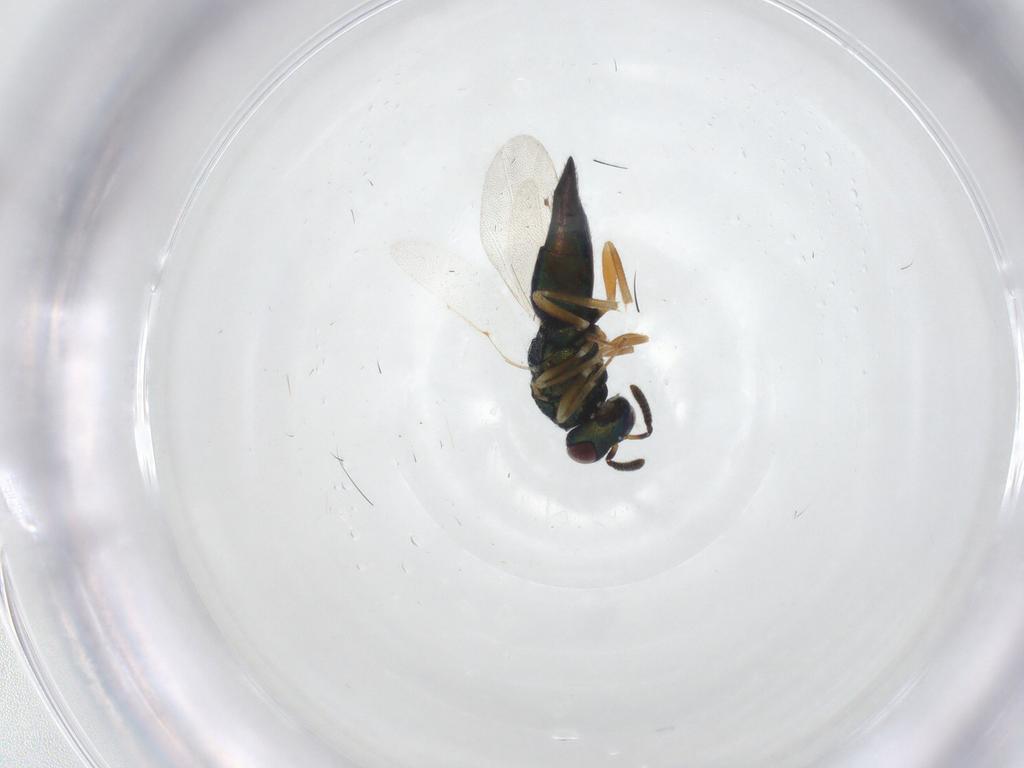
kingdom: Animalia
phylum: Arthropoda
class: Insecta
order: Hymenoptera
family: Pteromalidae
